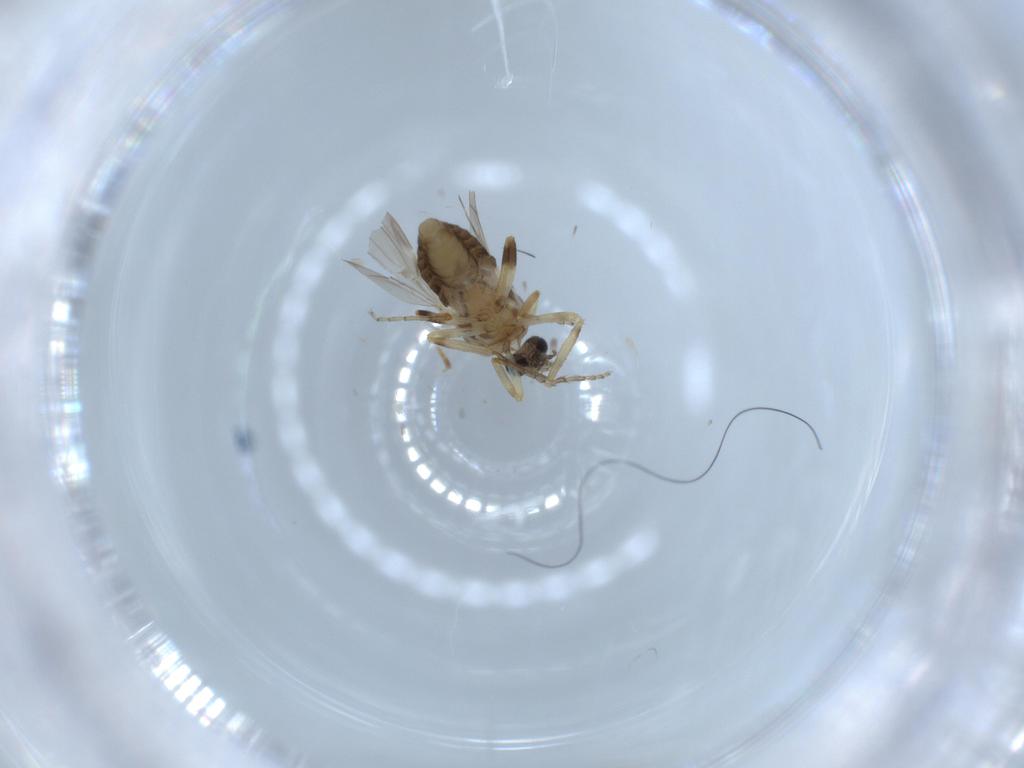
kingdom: Animalia
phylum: Arthropoda
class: Insecta
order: Diptera
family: Ceratopogonidae
